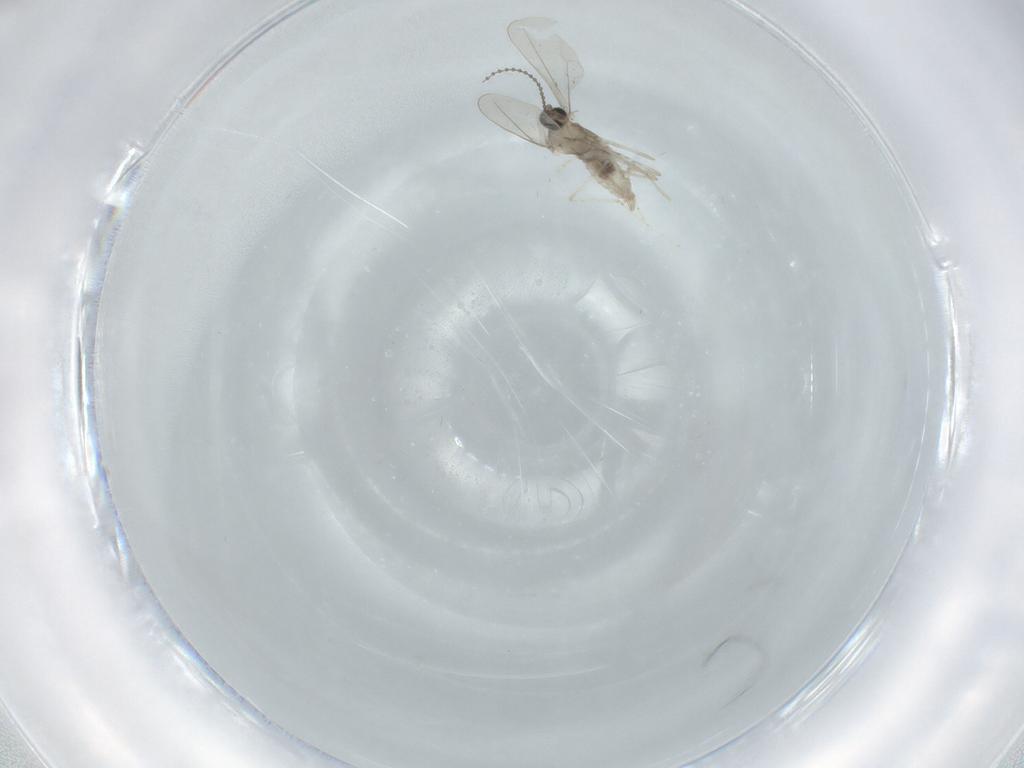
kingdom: Animalia
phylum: Arthropoda
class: Insecta
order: Diptera
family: Cecidomyiidae
